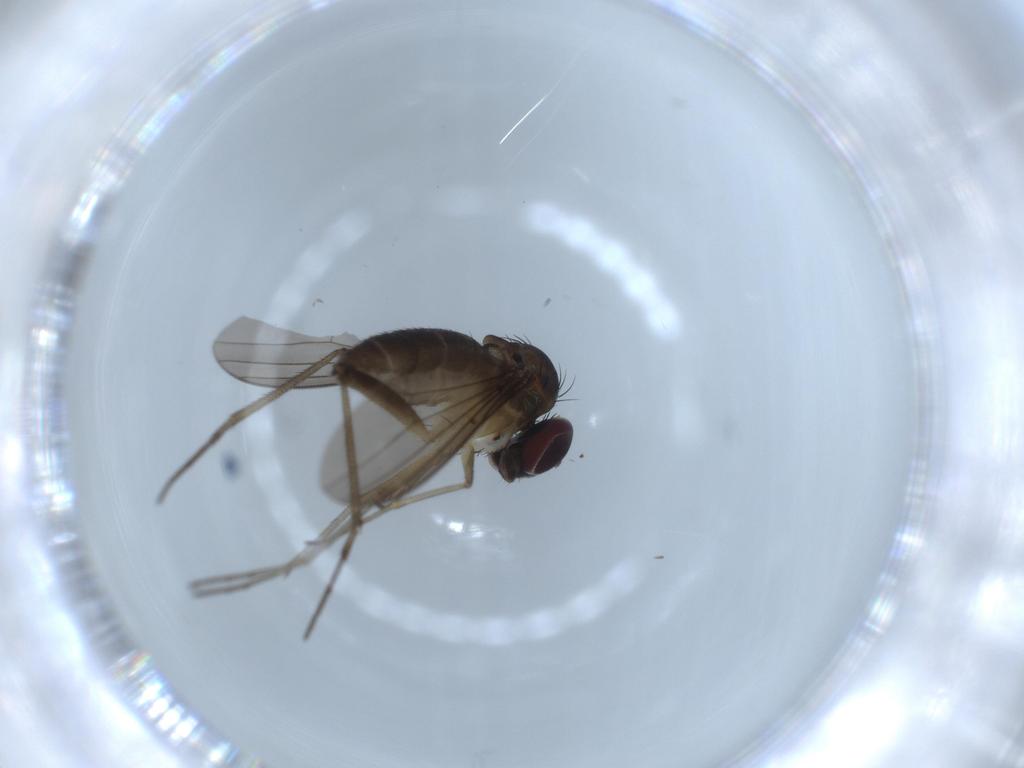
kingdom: Animalia
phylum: Arthropoda
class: Insecta
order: Diptera
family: Dolichopodidae
